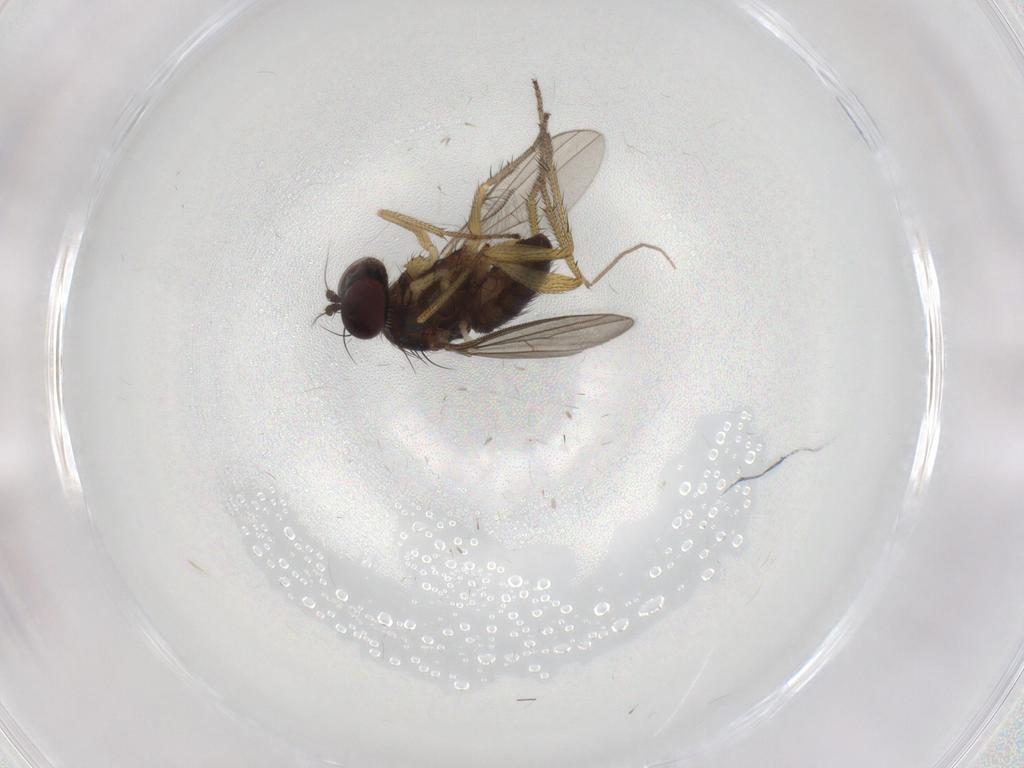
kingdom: Animalia
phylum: Arthropoda
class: Insecta
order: Diptera
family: Dolichopodidae
